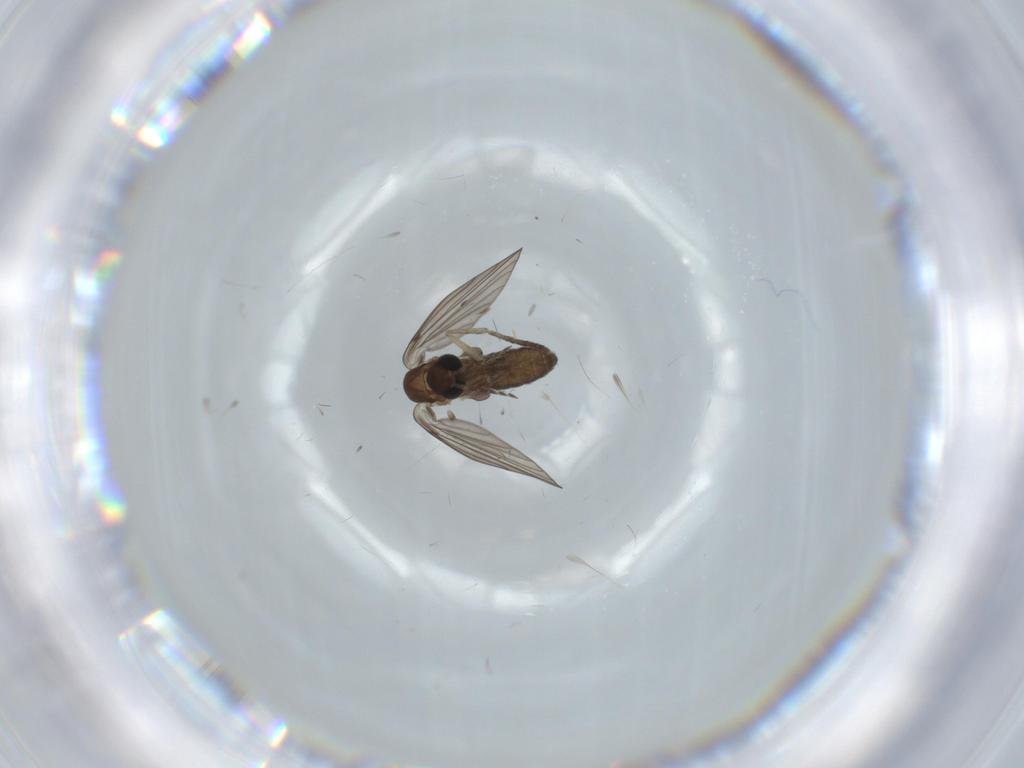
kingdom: Animalia
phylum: Arthropoda
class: Insecta
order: Diptera
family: Psychodidae
